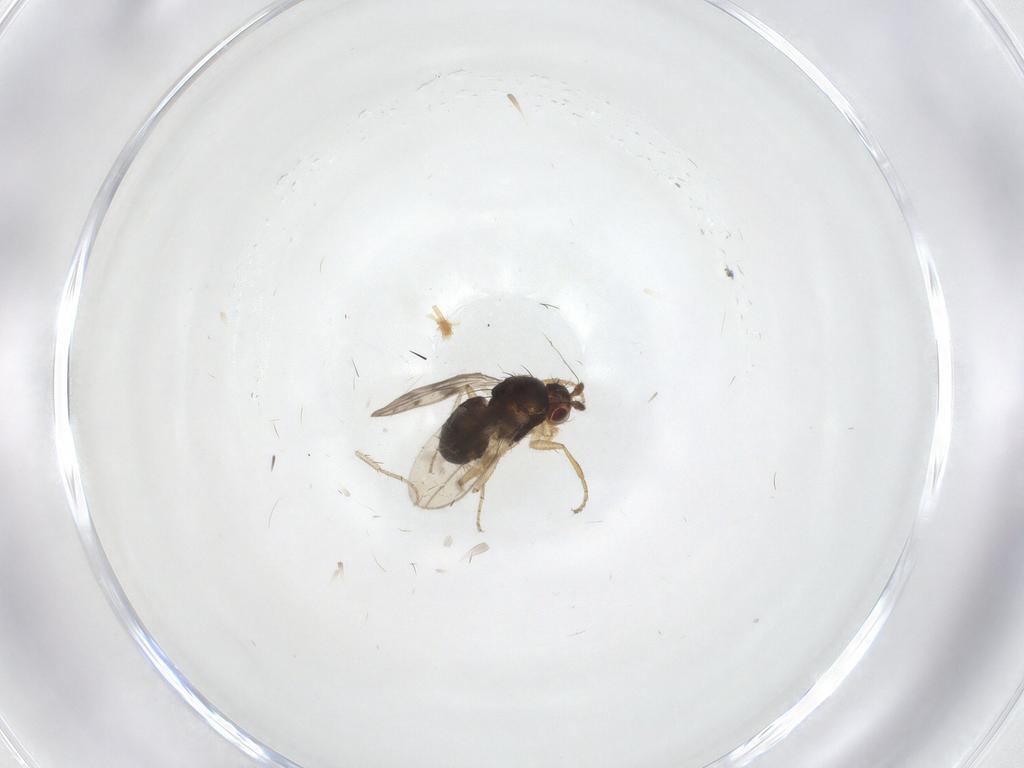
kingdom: Animalia
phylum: Arthropoda
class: Insecta
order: Diptera
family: Sphaeroceridae
